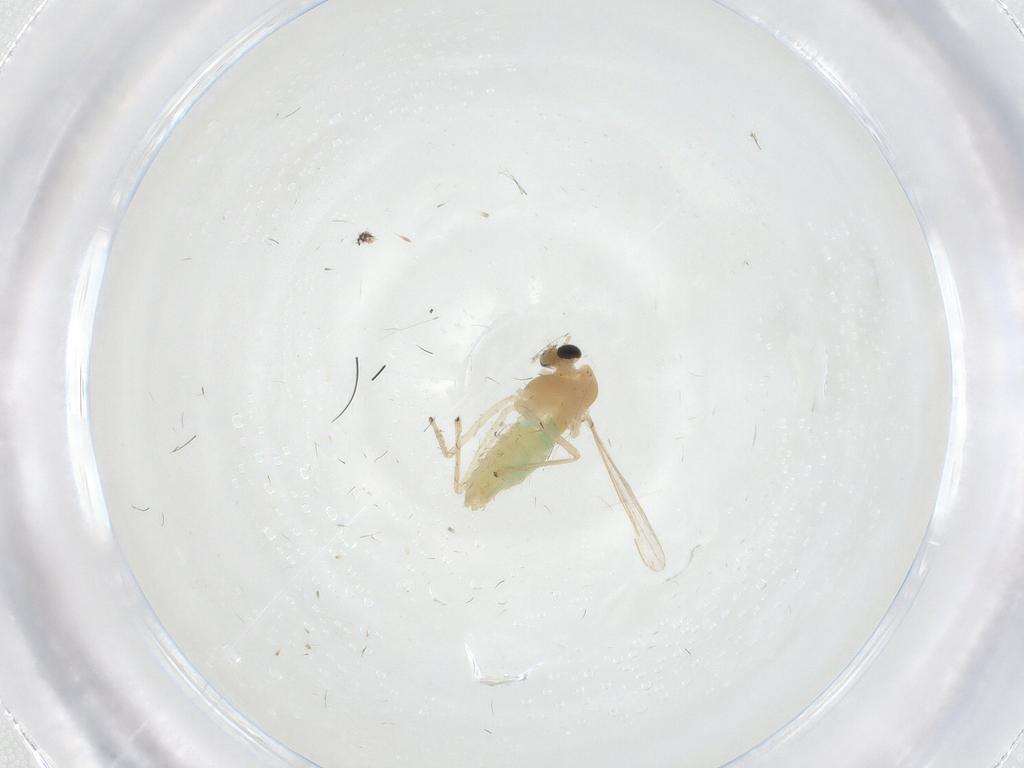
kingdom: Animalia
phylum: Arthropoda
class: Insecta
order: Diptera
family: Chironomidae
